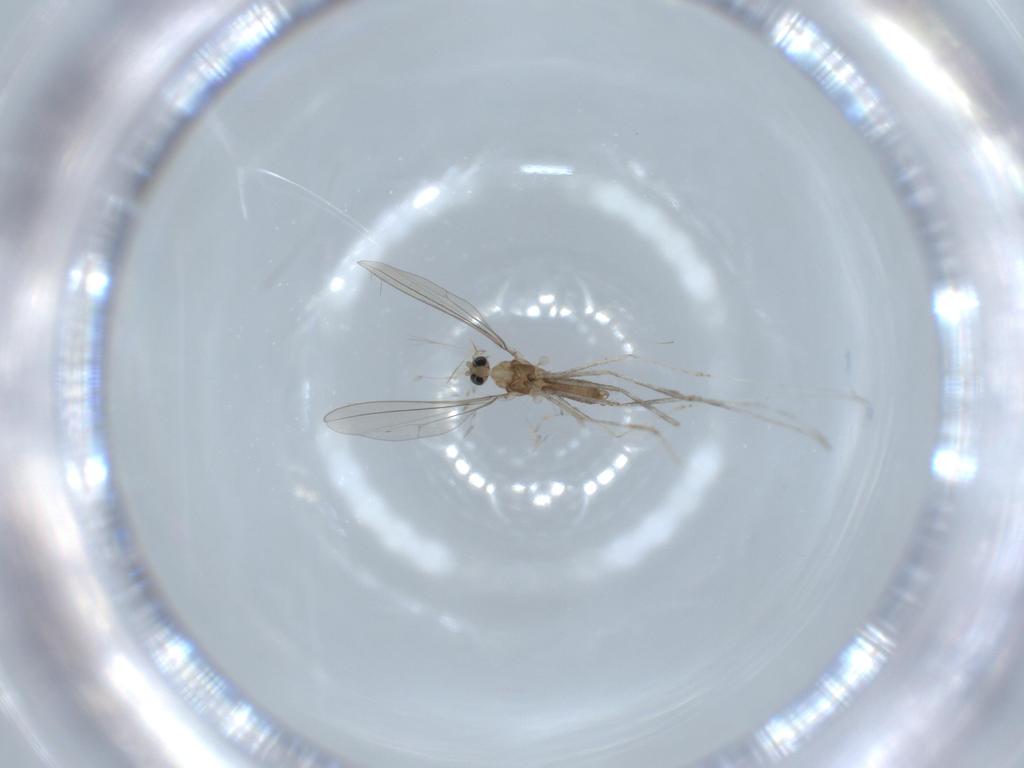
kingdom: Animalia
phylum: Arthropoda
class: Insecta
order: Diptera
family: Cecidomyiidae
